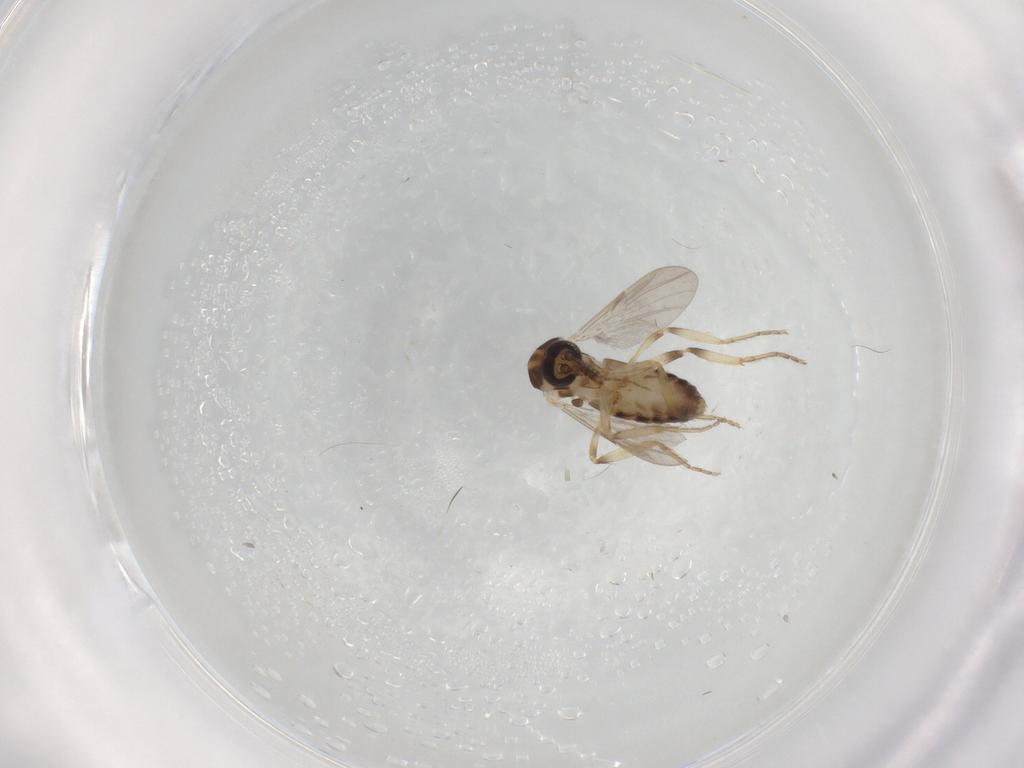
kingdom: Animalia
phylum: Arthropoda
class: Insecta
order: Diptera
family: Ceratopogonidae
